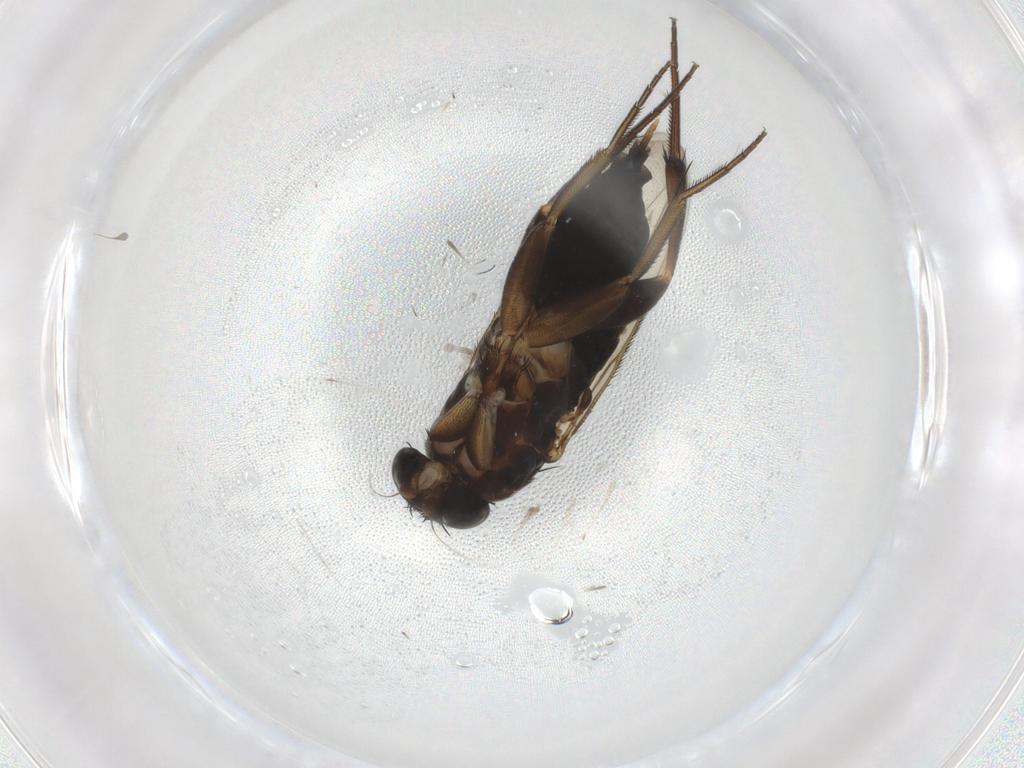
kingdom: Animalia
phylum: Arthropoda
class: Insecta
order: Diptera
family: Phoridae
